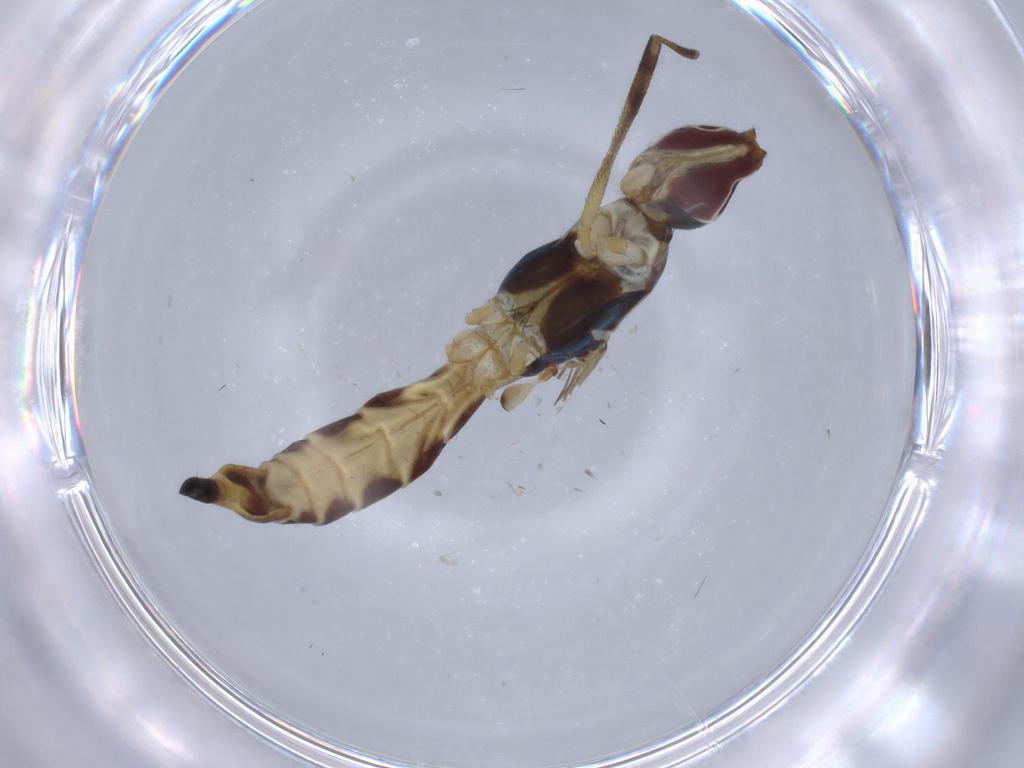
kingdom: Animalia
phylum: Arthropoda
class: Insecta
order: Diptera
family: Micropezidae
